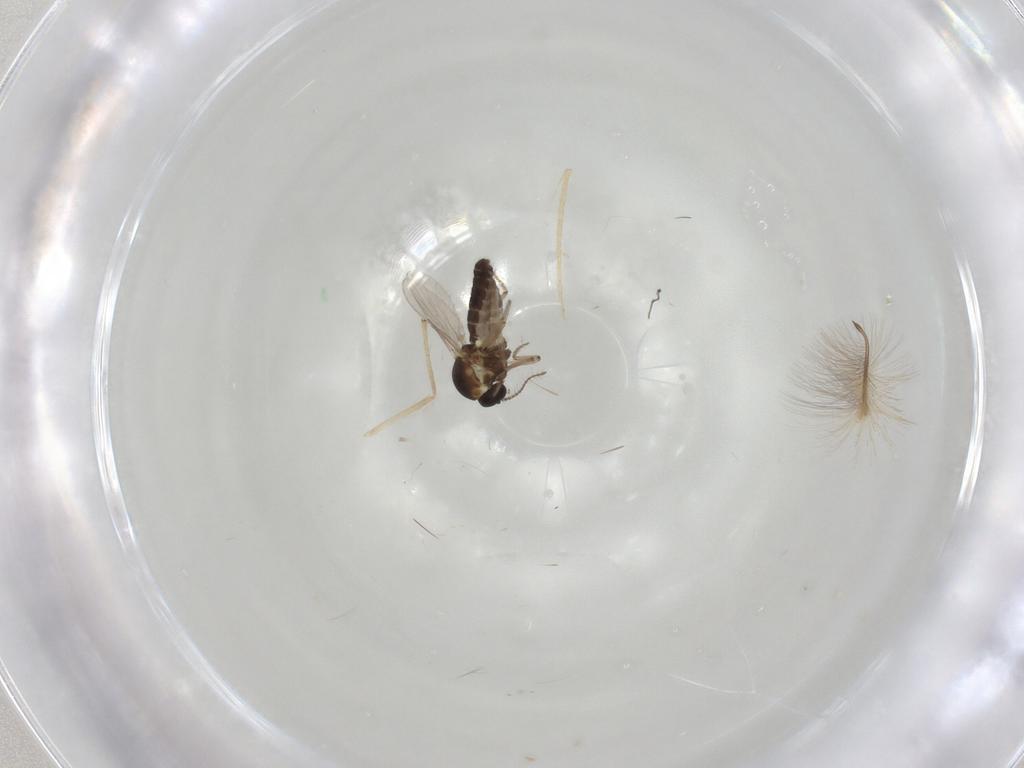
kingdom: Animalia
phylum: Arthropoda
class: Insecta
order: Diptera
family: Ceratopogonidae
